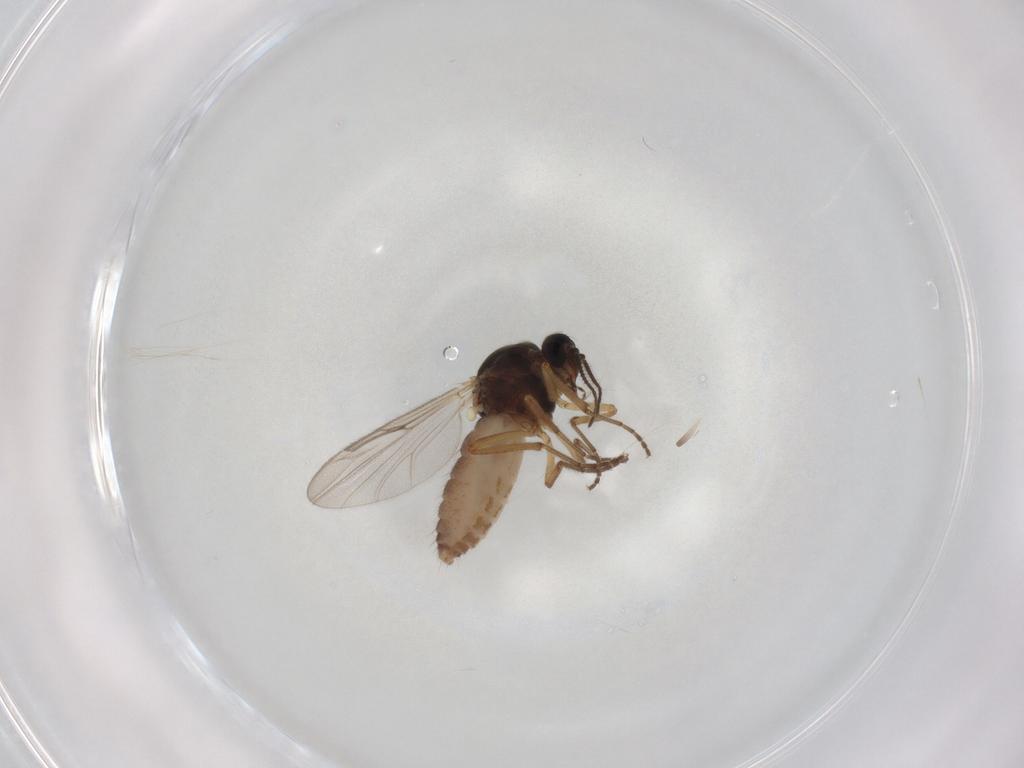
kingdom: Animalia
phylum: Arthropoda
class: Insecta
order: Diptera
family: Ceratopogonidae
